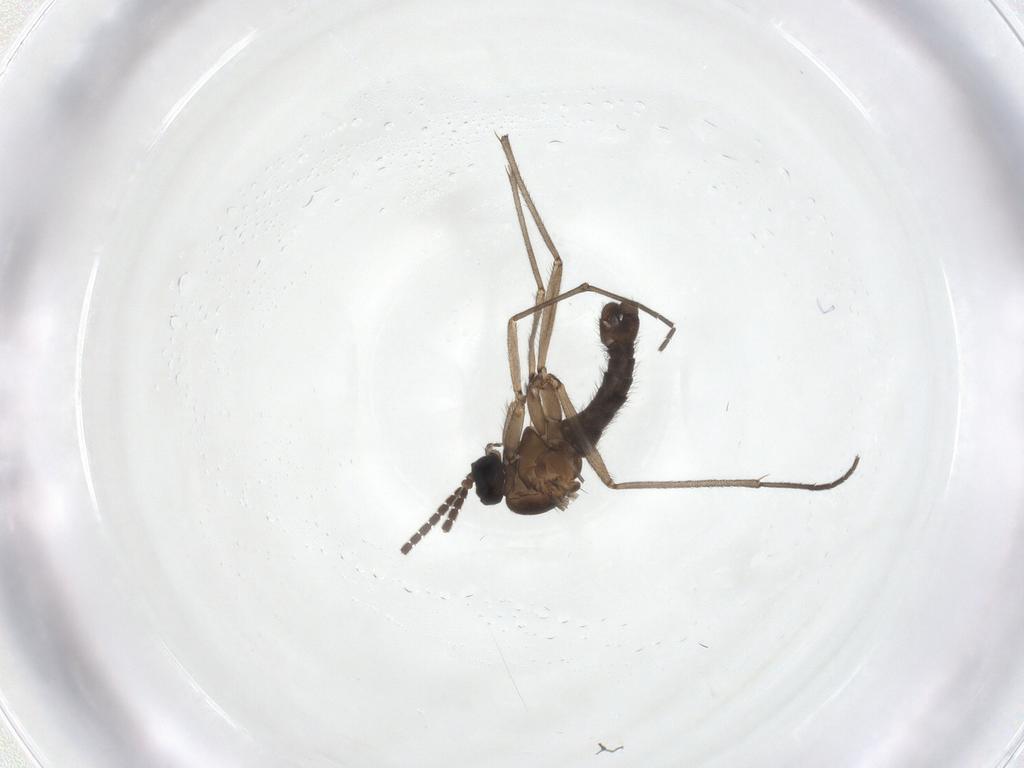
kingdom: Animalia
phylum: Arthropoda
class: Insecta
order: Diptera
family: Sciaridae
